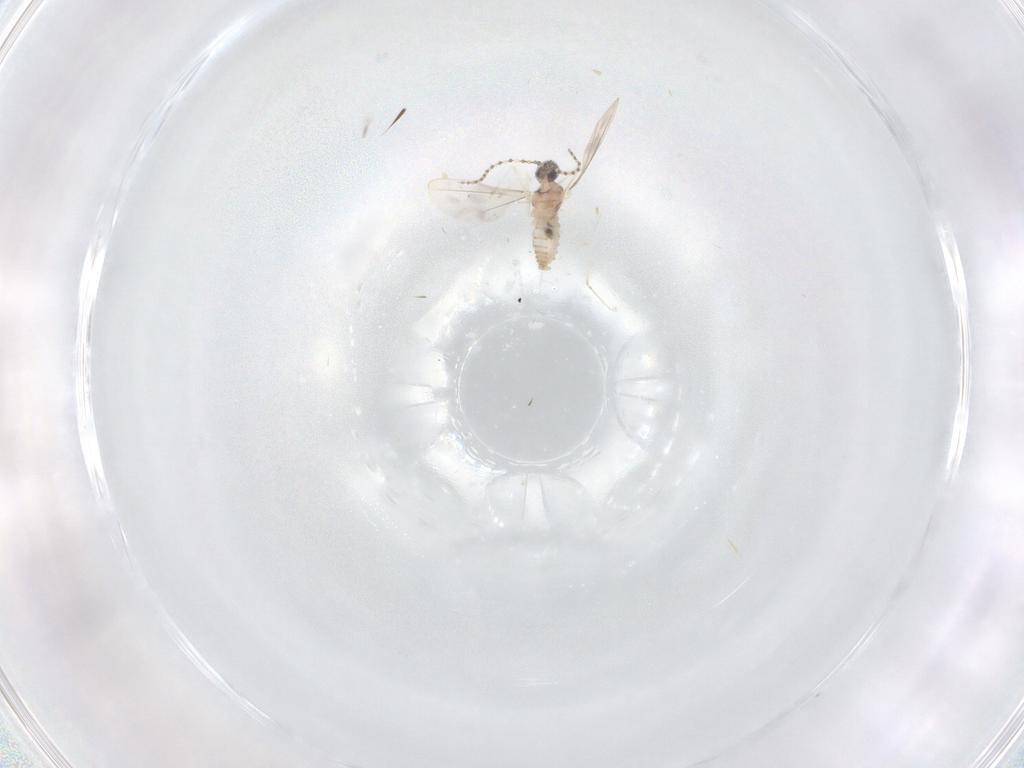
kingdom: Animalia
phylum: Arthropoda
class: Insecta
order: Diptera
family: Cecidomyiidae
